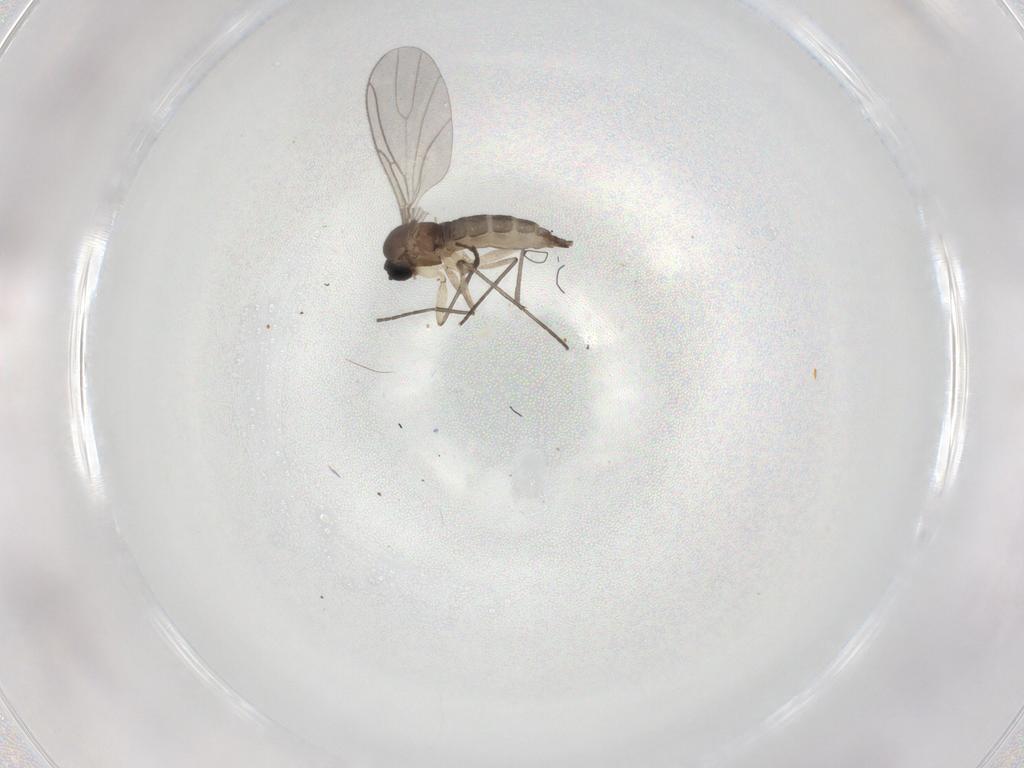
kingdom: Animalia
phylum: Arthropoda
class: Insecta
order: Diptera
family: Sciaridae
